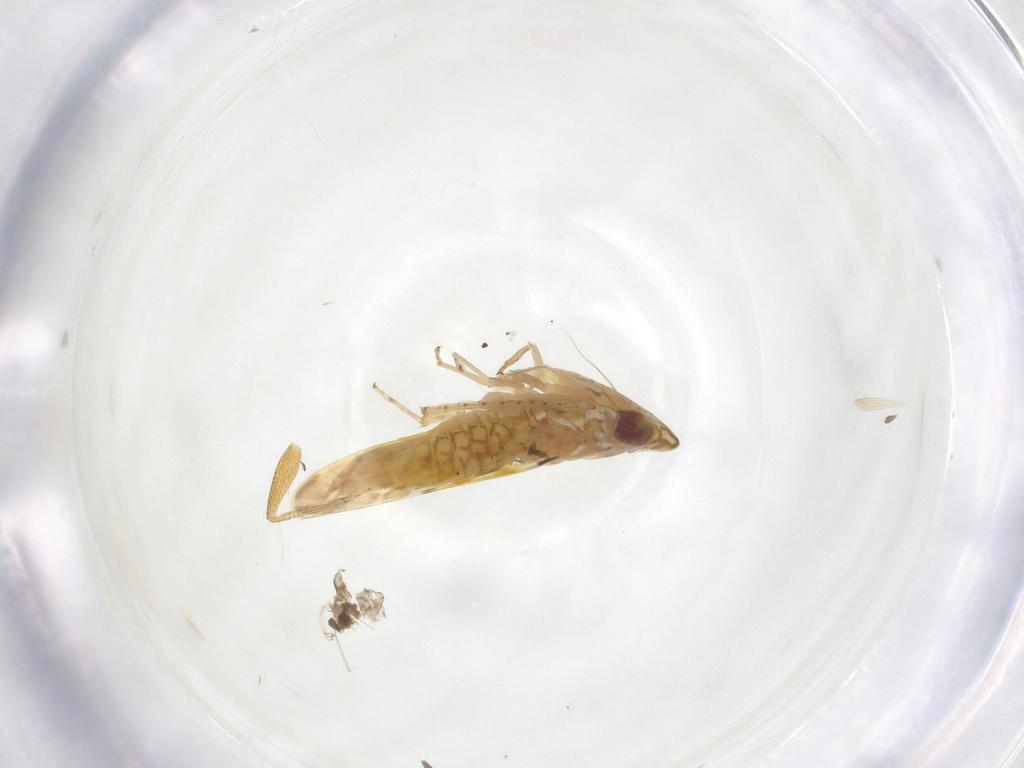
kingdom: Animalia
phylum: Arthropoda
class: Insecta
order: Hemiptera
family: Cicadellidae
